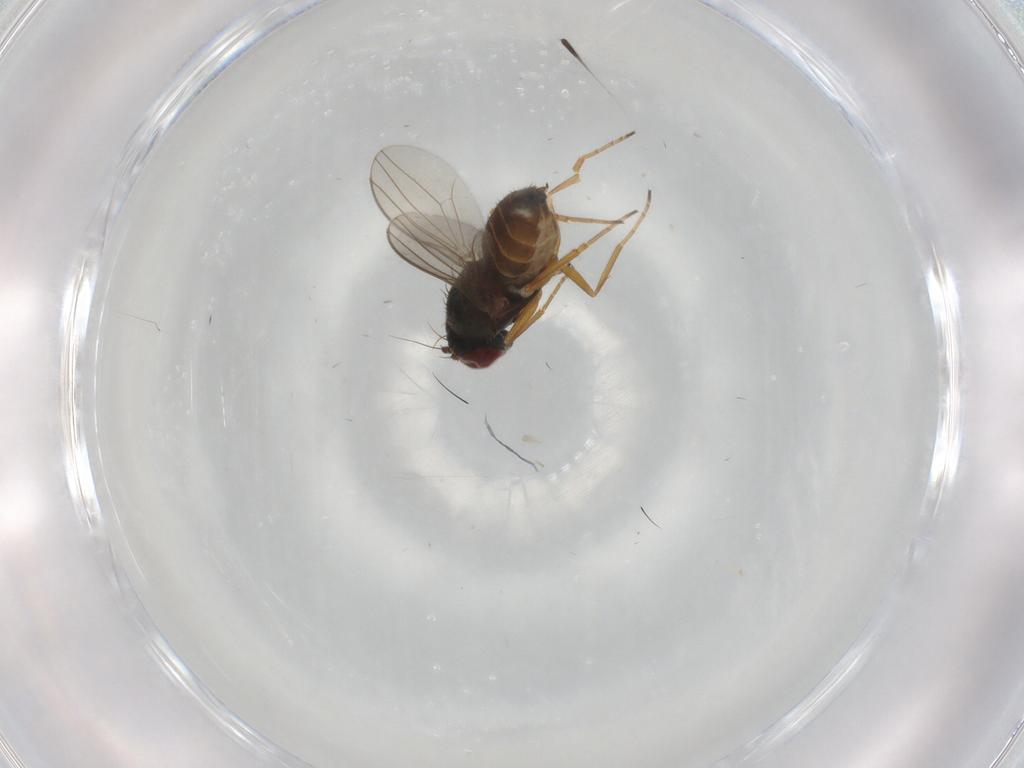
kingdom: Animalia
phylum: Arthropoda
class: Insecta
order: Diptera
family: Dolichopodidae
